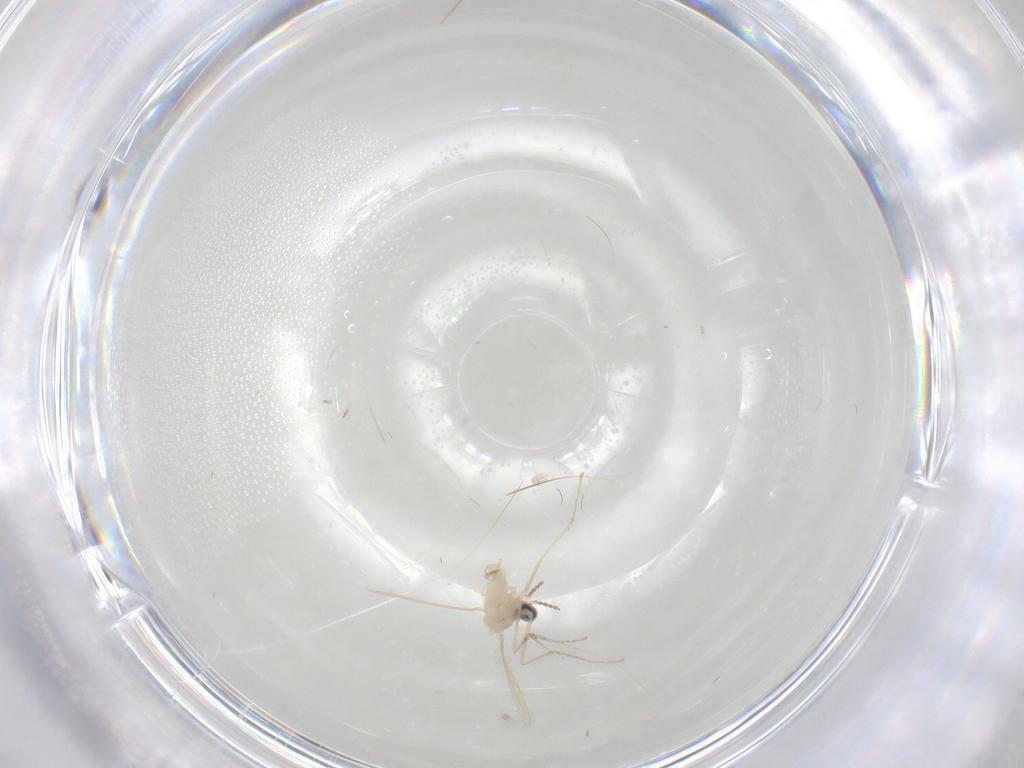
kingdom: Animalia
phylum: Arthropoda
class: Insecta
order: Diptera
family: Cecidomyiidae
